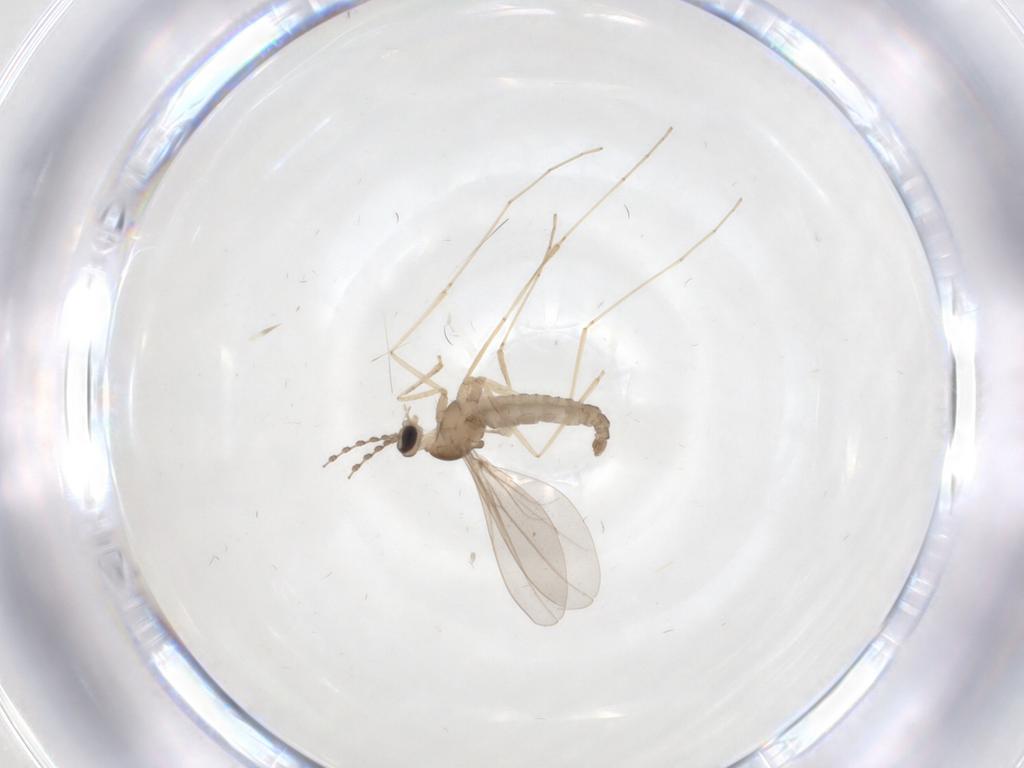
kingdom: Animalia
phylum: Arthropoda
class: Insecta
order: Diptera
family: Cecidomyiidae
